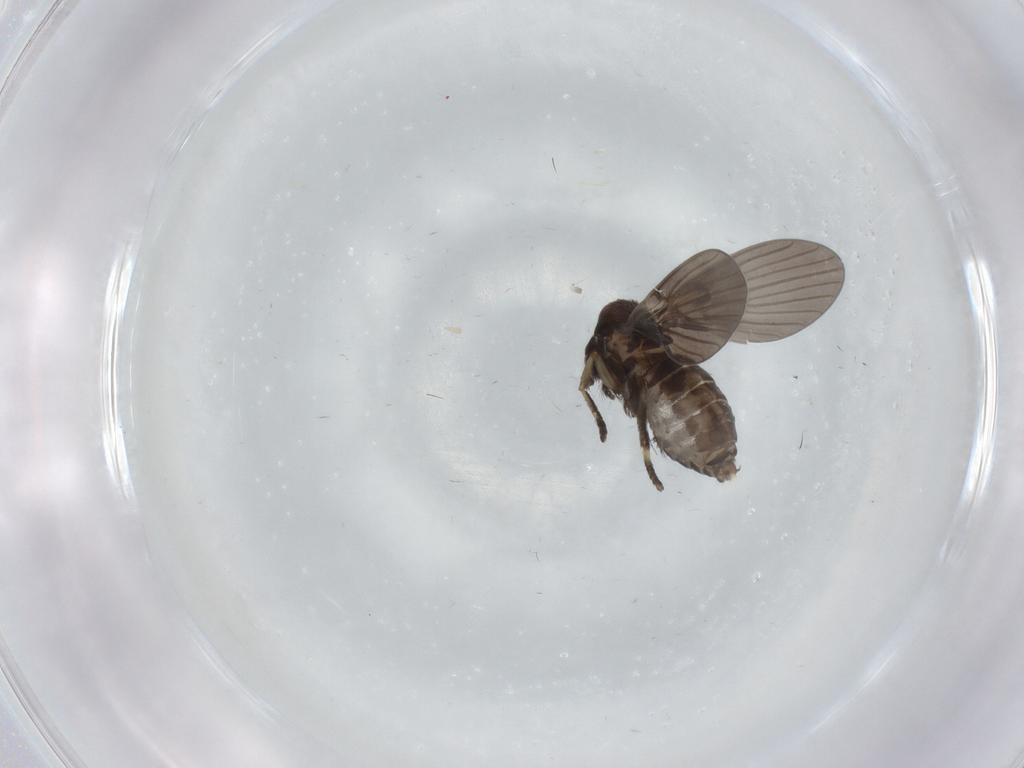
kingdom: Animalia
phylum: Arthropoda
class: Insecta
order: Diptera
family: Psychodidae
